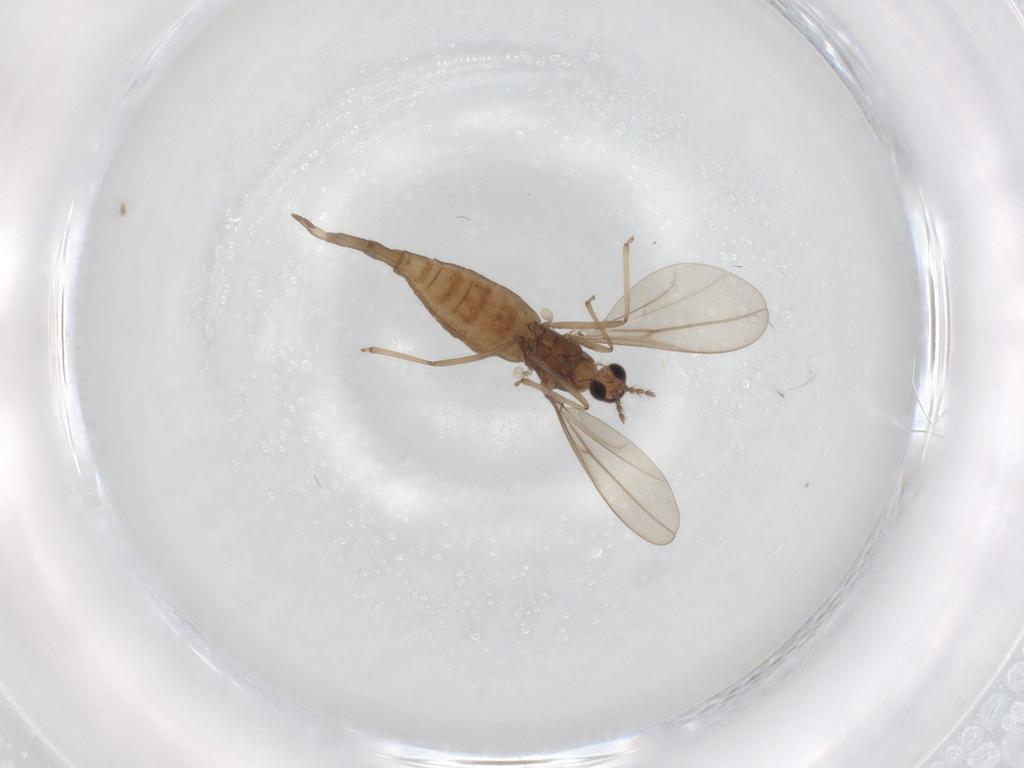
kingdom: Animalia
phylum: Arthropoda
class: Insecta
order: Diptera
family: Cecidomyiidae
